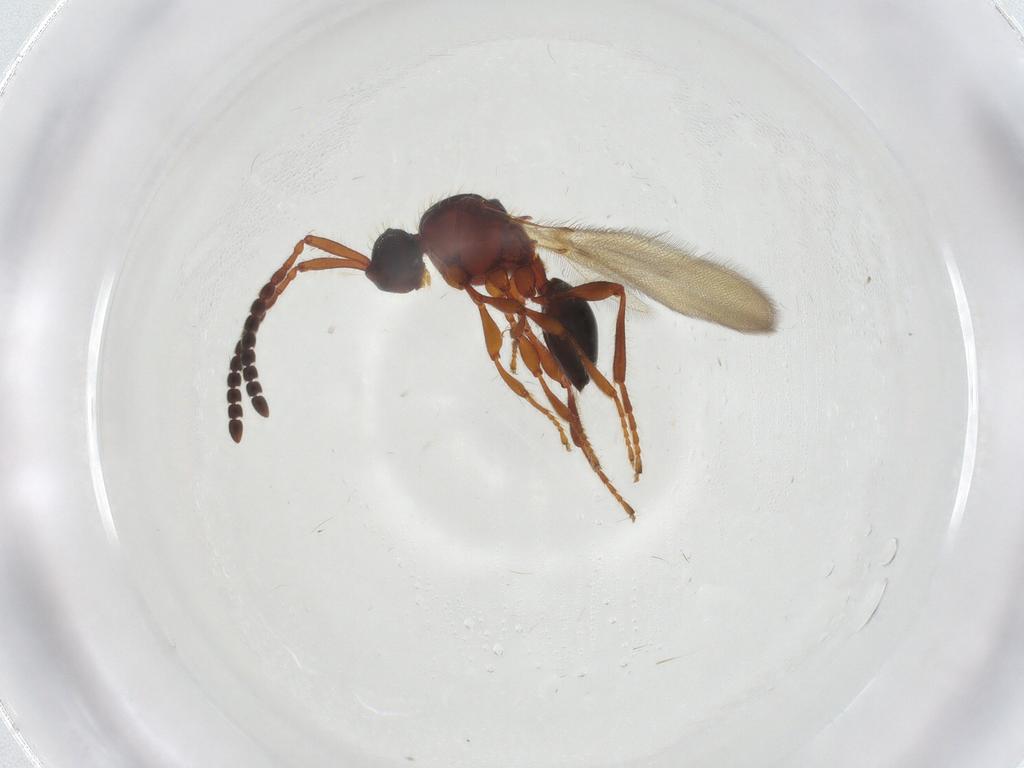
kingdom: Animalia
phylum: Arthropoda
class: Insecta
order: Hymenoptera
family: Diapriidae
